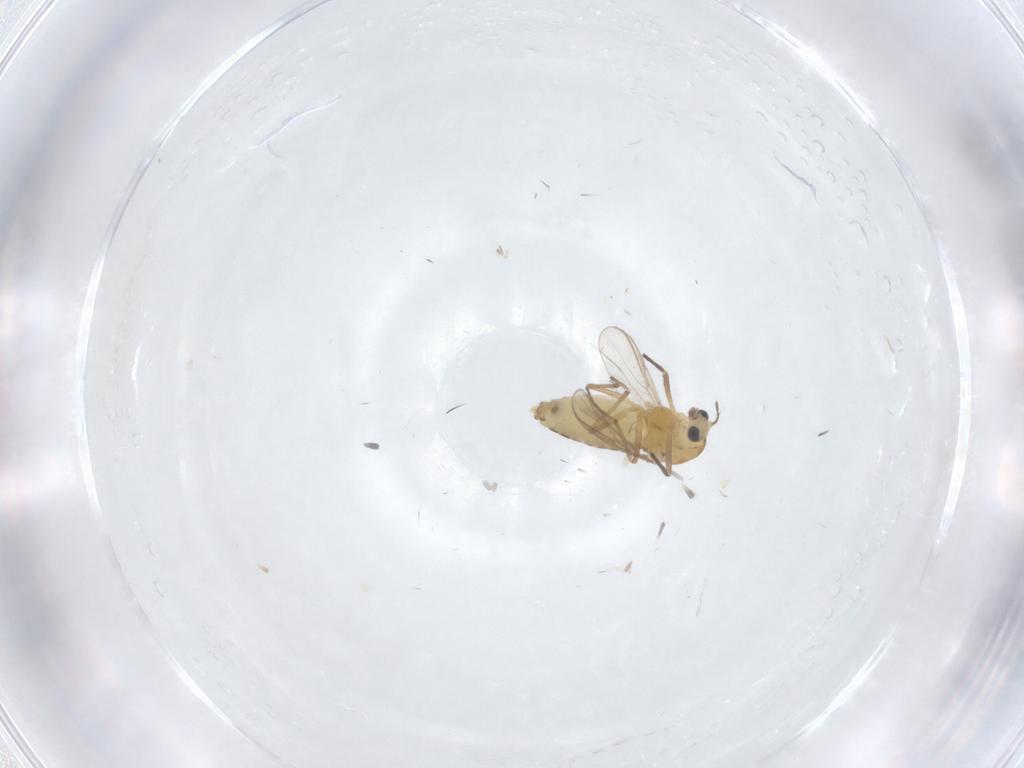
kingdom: Animalia
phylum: Arthropoda
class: Insecta
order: Diptera
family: Chironomidae
